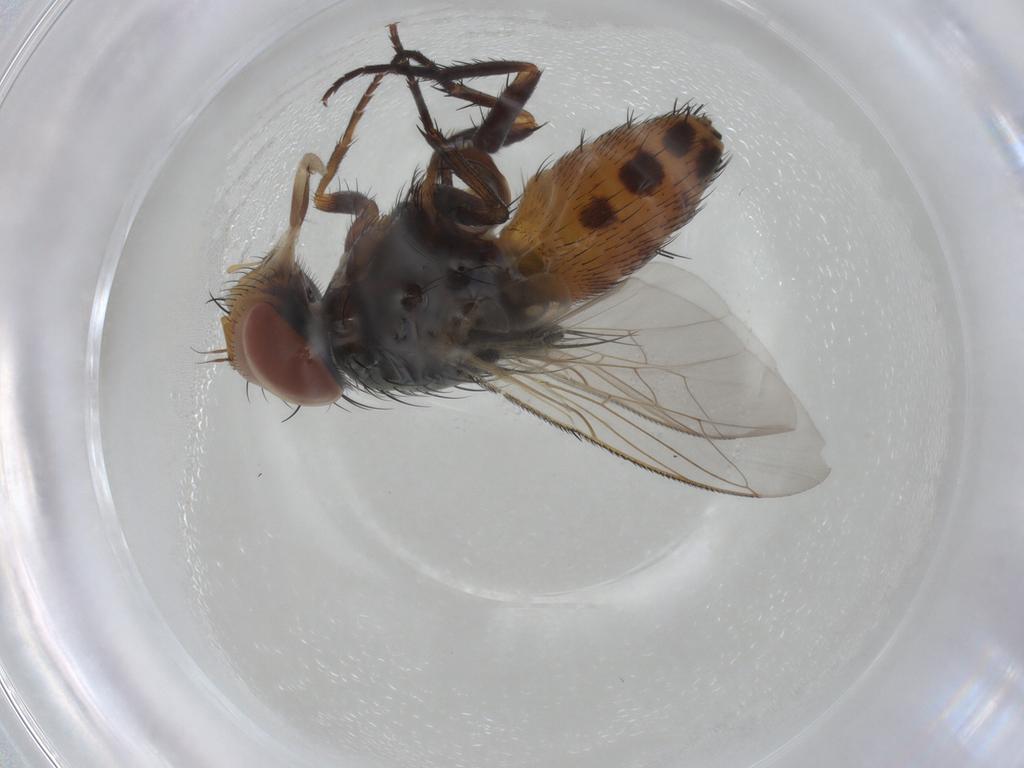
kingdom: Animalia
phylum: Arthropoda
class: Insecta
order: Diptera
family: Sarcophagidae
